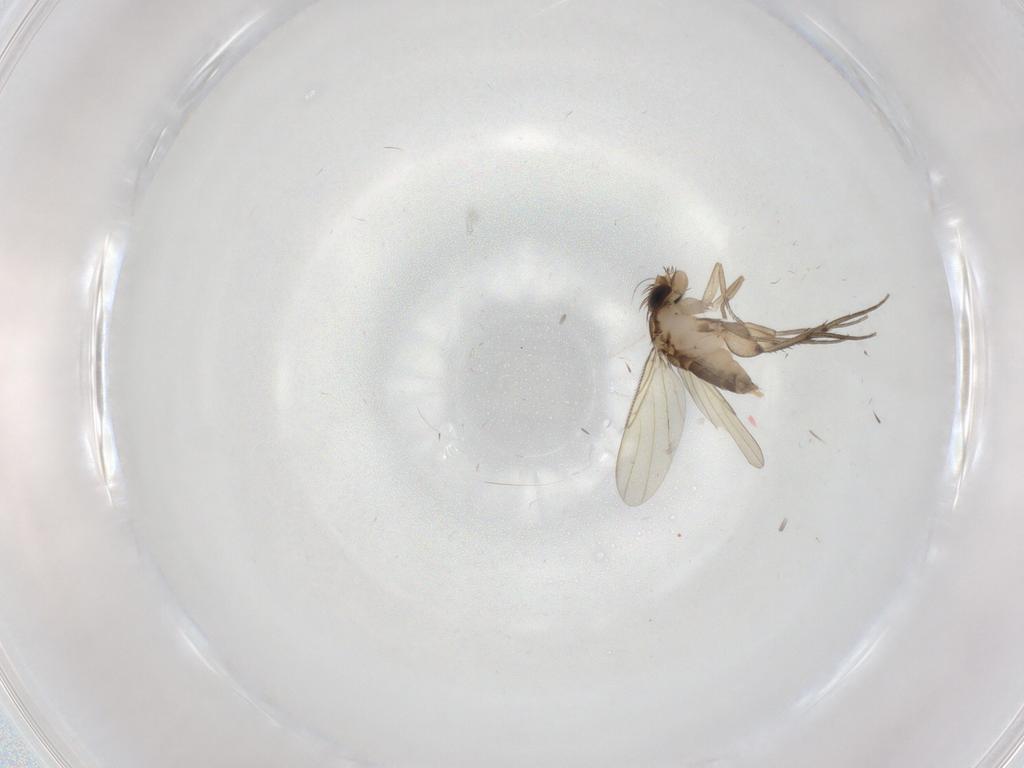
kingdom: Animalia
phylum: Arthropoda
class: Insecta
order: Diptera
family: Phoridae
